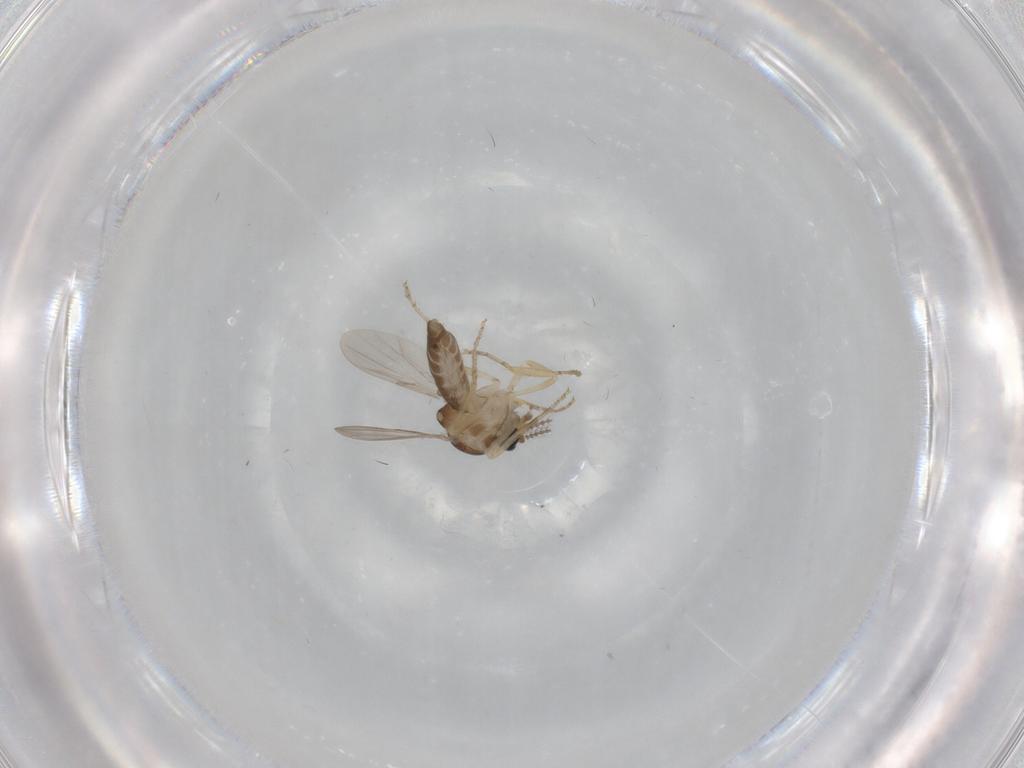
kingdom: Animalia
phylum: Arthropoda
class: Insecta
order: Diptera
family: Ceratopogonidae
